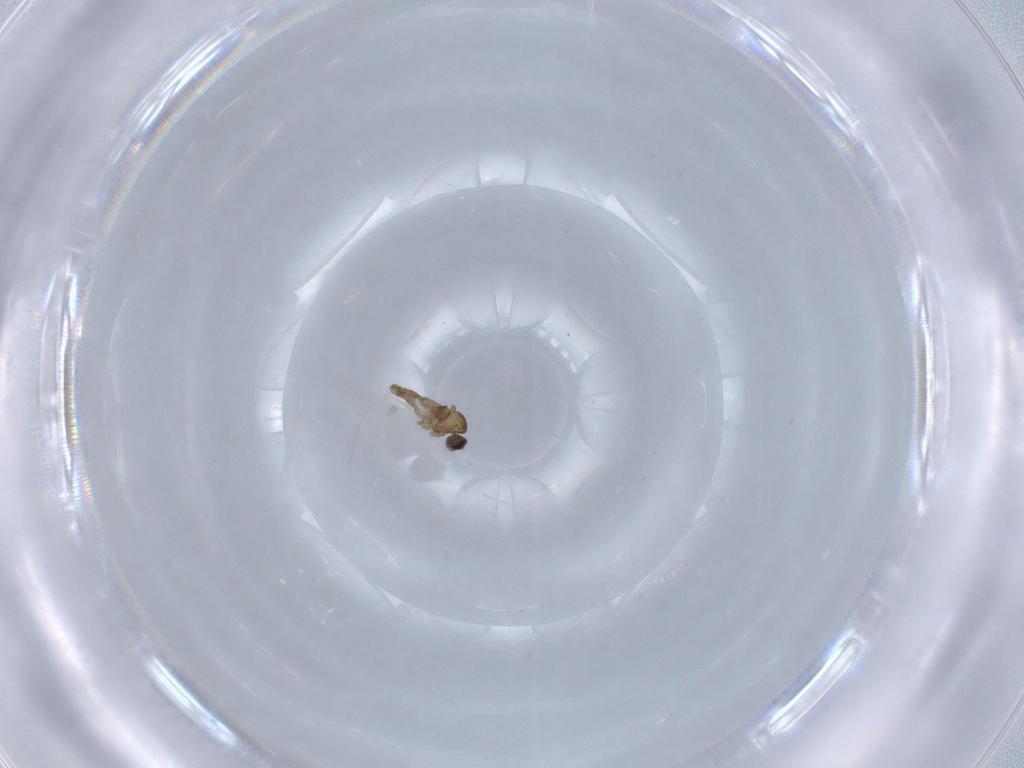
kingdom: Animalia
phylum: Arthropoda
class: Insecta
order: Diptera
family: Cecidomyiidae
